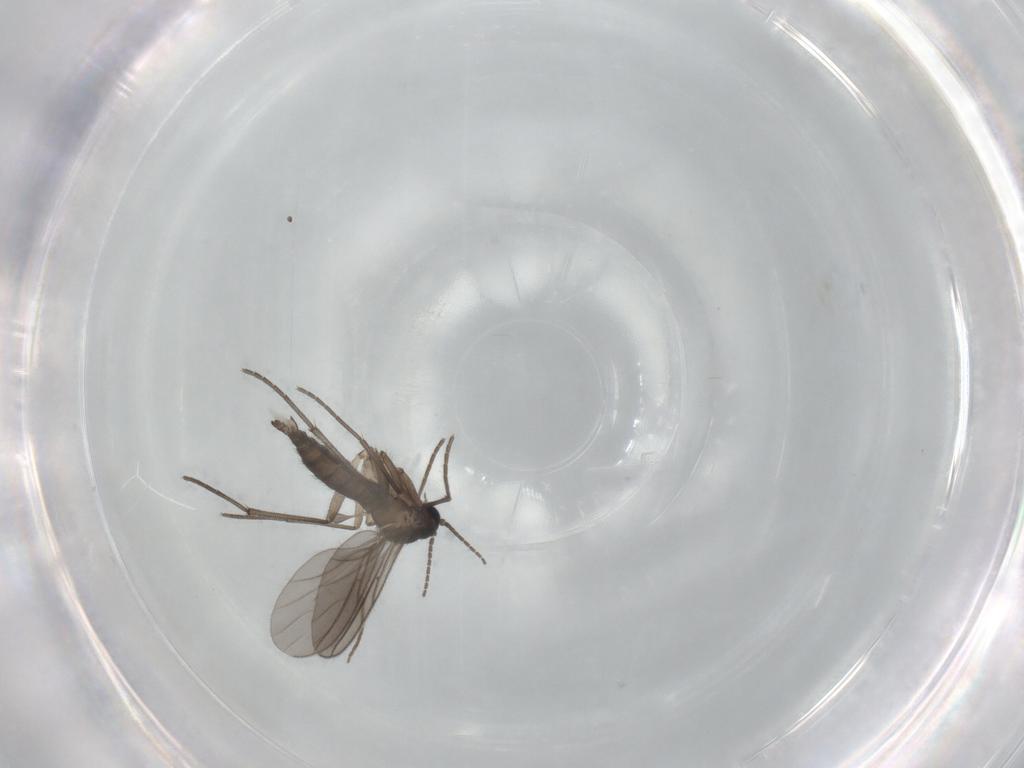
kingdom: Animalia
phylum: Arthropoda
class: Insecta
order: Diptera
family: Sciaridae
